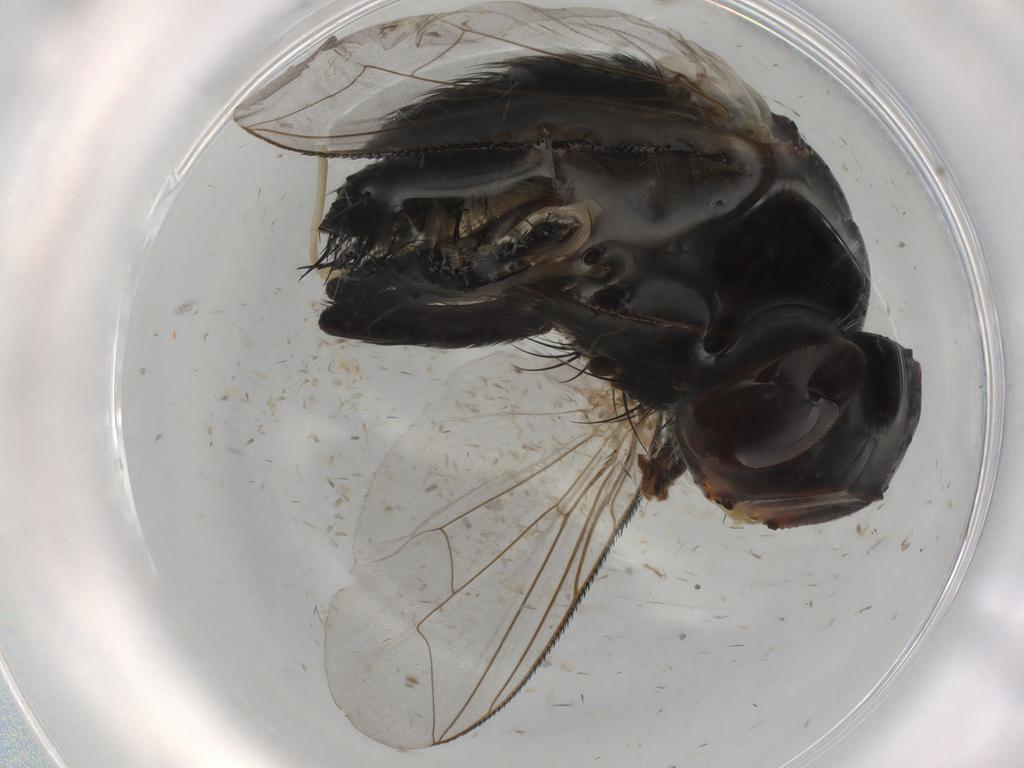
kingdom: Animalia
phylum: Arthropoda
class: Insecta
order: Diptera
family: Tachinidae
